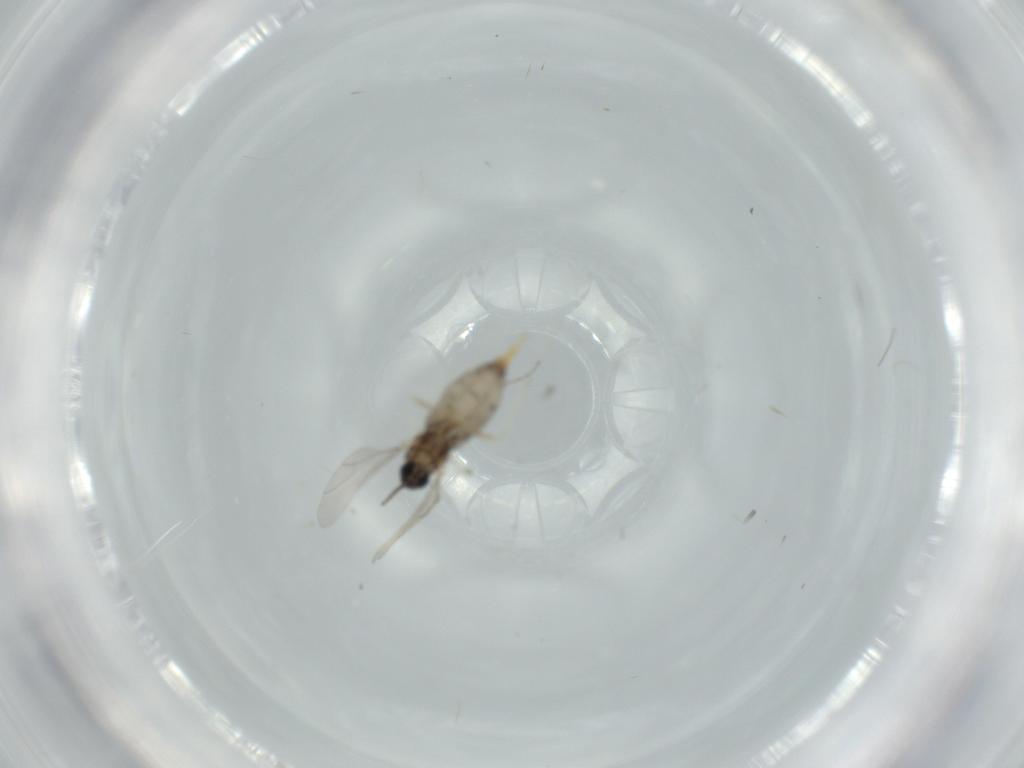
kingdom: Animalia
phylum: Arthropoda
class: Insecta
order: Diptera
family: Cecidomyiidae
